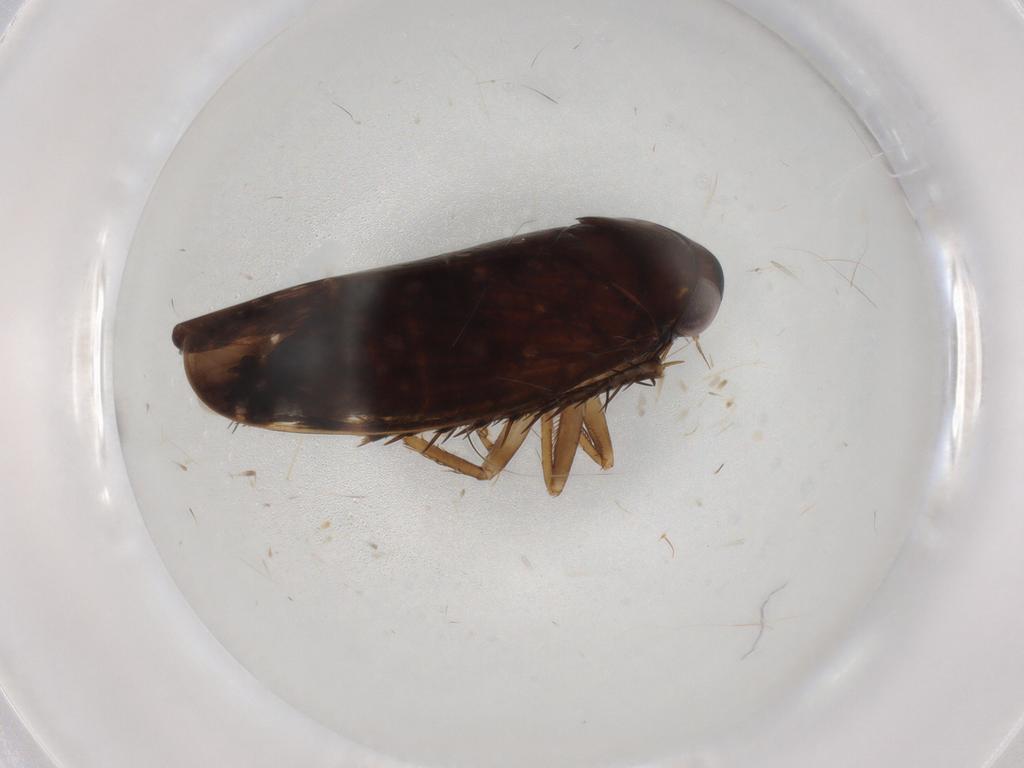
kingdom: Animalia
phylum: Arthropoda
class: Insecta
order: Hemiptera
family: Cicadellidae
